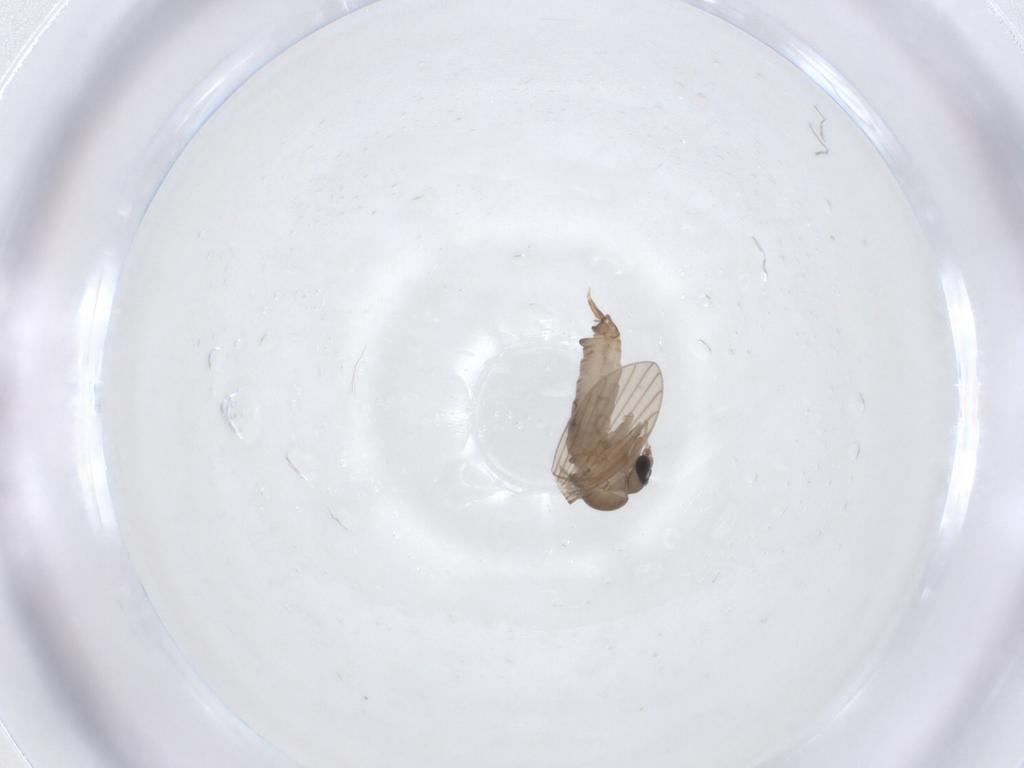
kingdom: Animalia
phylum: Arthropoda
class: Insecta
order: Diptera
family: Psychodidae
